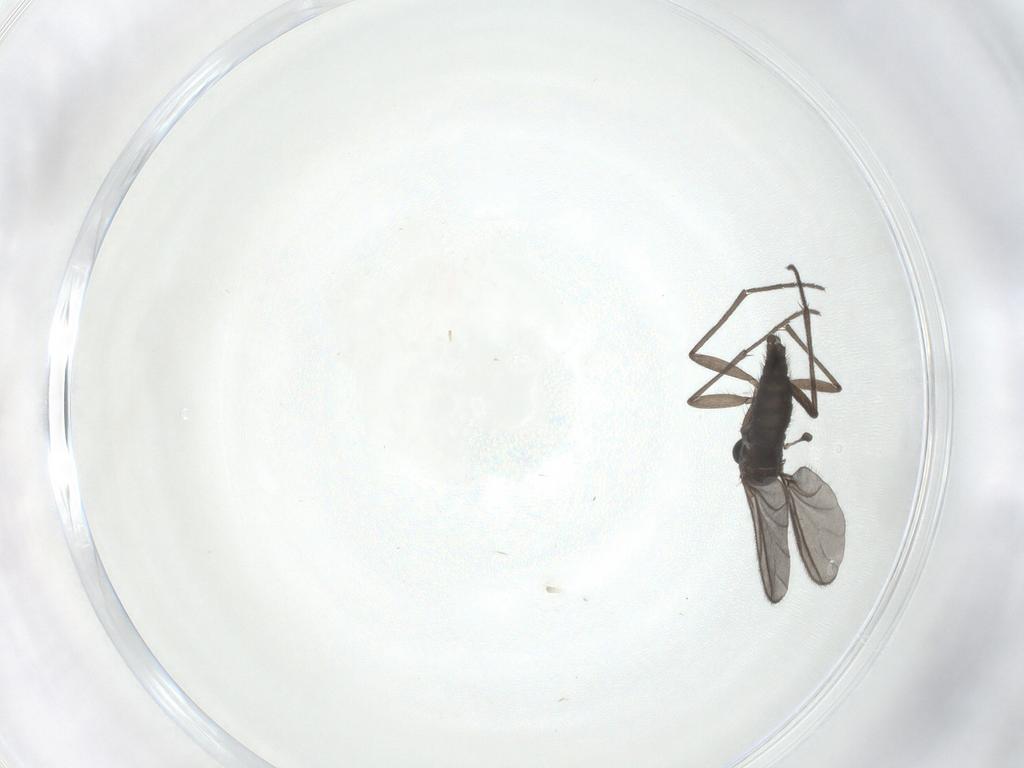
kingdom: Animalia
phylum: Arthropoda
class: Insecta
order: Diptera
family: Sciaridae
